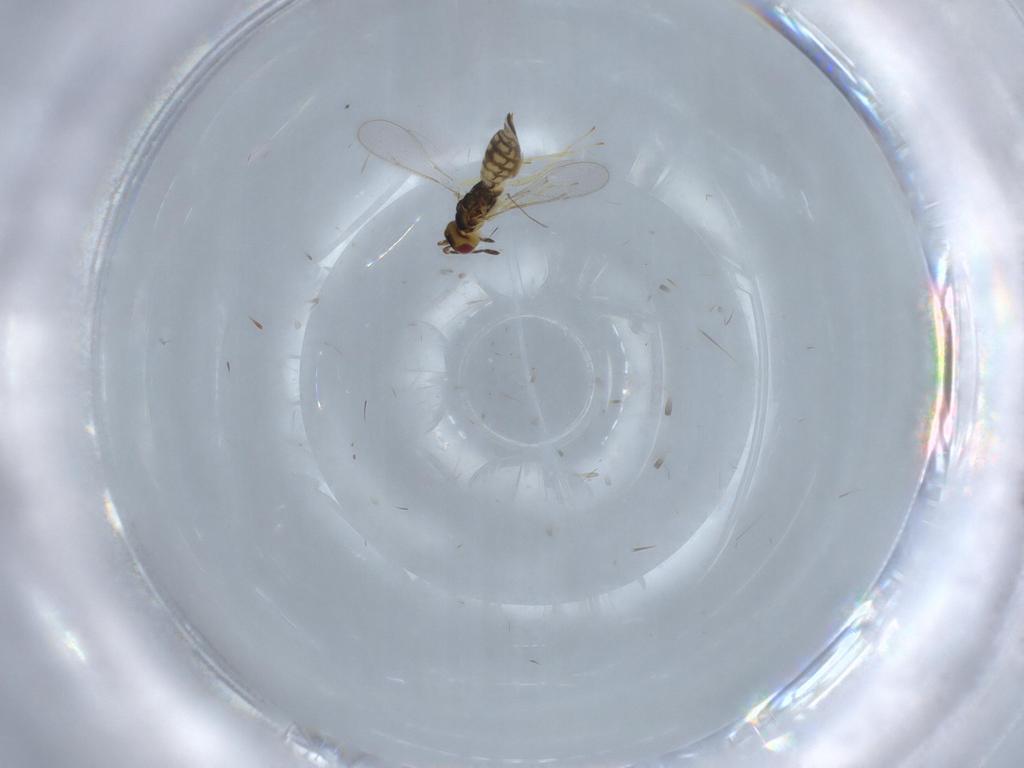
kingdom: Animalia
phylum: Arthropoda
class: Insecta
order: Hymenoptera
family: Eulophidae
